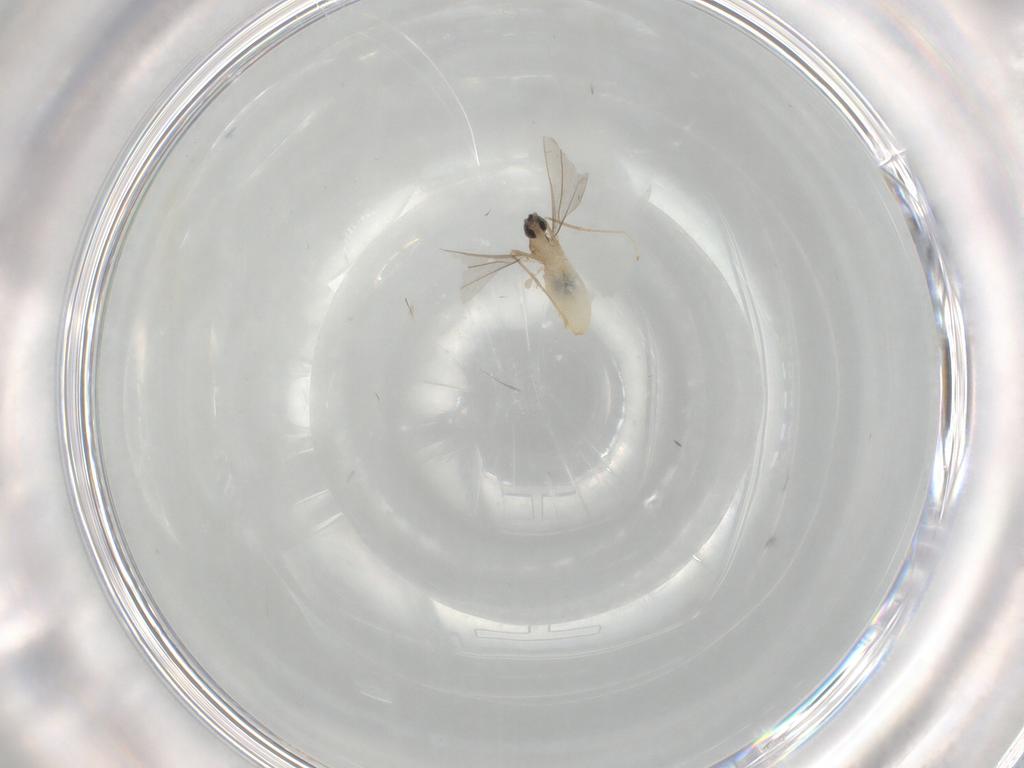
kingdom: Animalia
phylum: Arthropoda
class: Insecta
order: Diptera
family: Cecidomyiidae
